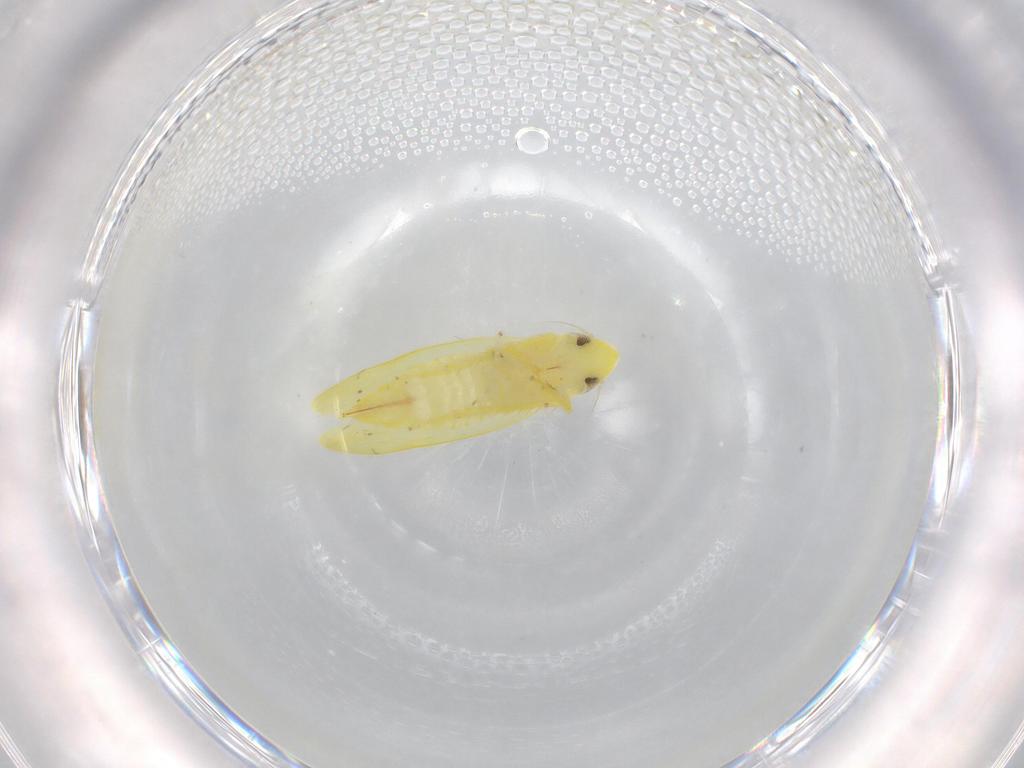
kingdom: Animalia
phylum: Arthropoda
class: Insecta
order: Hemiptera
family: Cicadellidae
